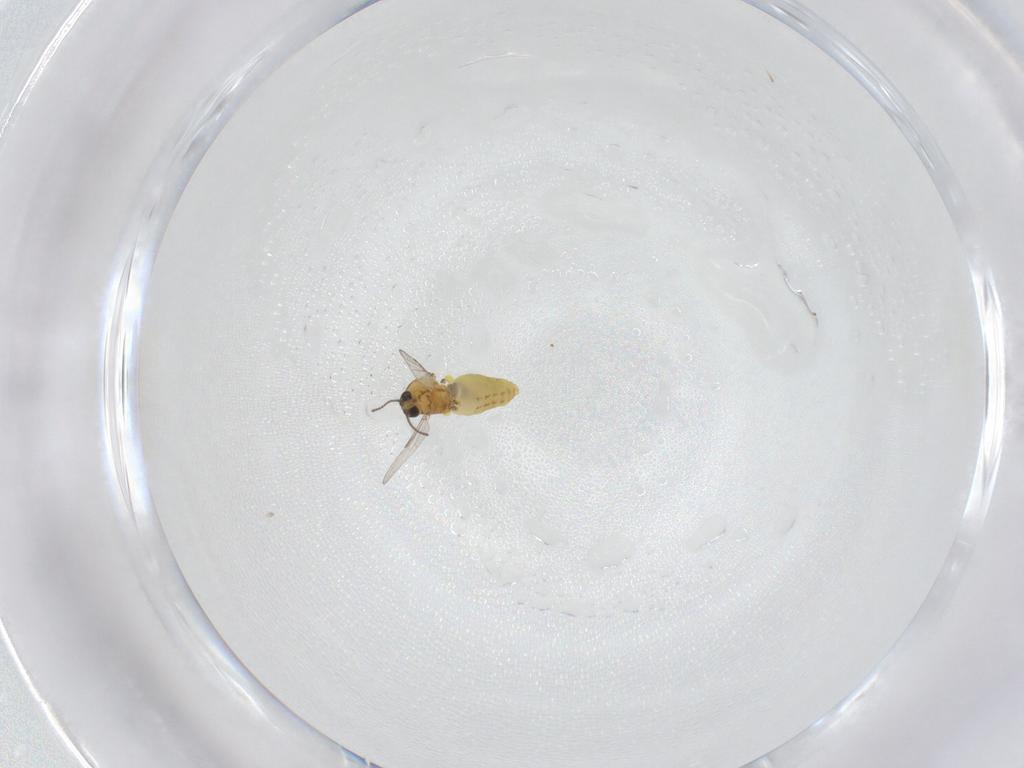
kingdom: Animalia
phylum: Arthropoda
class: Insecta
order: Diptera
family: Ceratopogonidae
